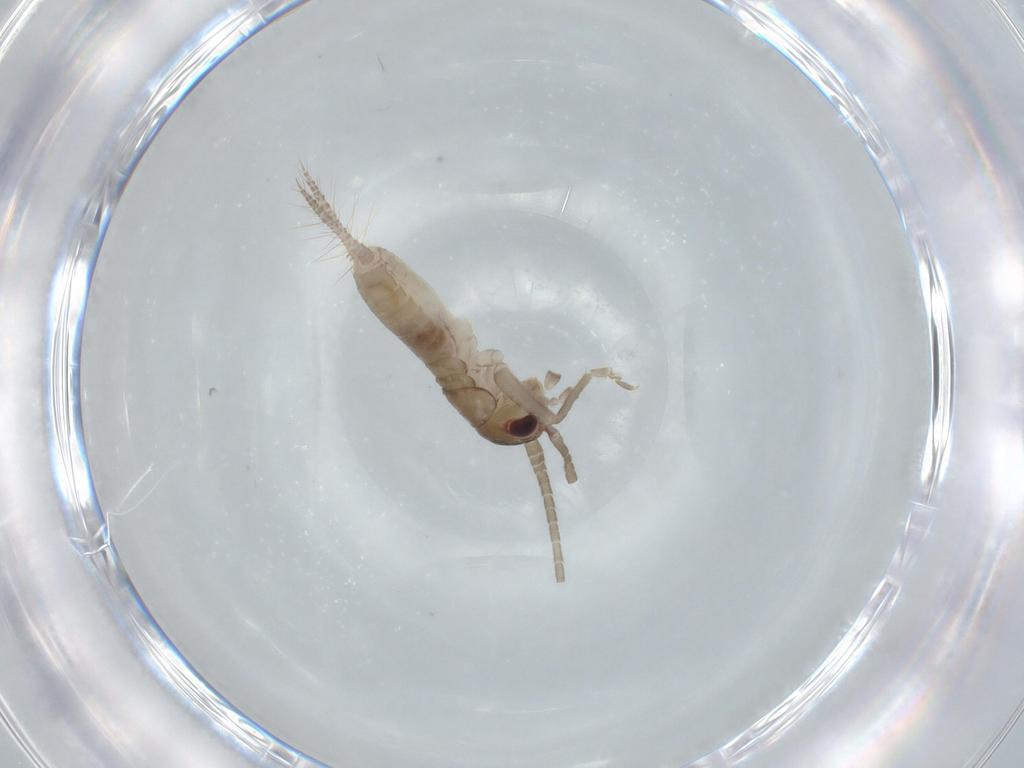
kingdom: Animalia
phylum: Arthropoda
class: Insecta
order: Orthoptera
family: Gryllidae
